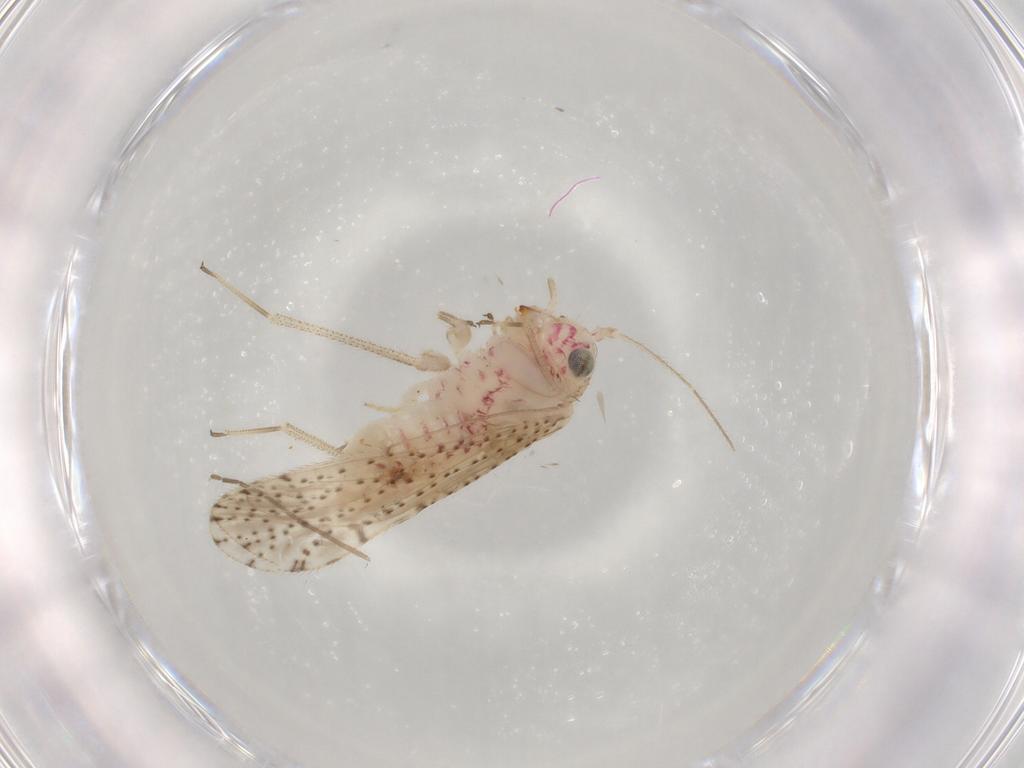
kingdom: Animalia
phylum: Arthropoda
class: Insecta
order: Psocodea
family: Philotarsidae
